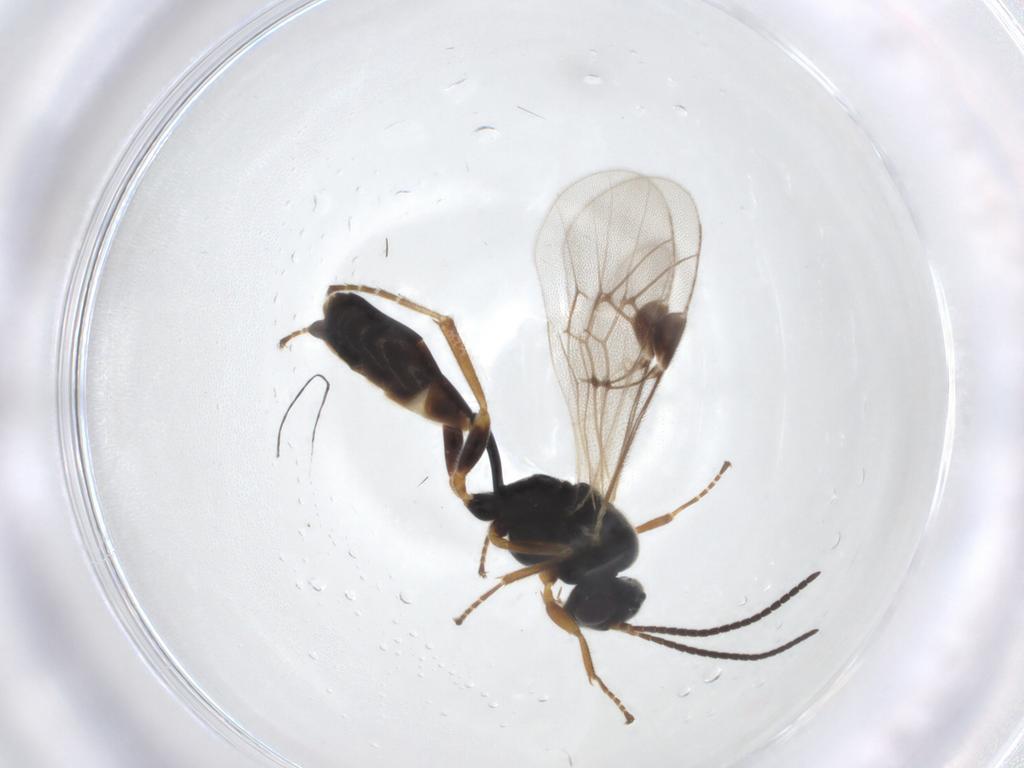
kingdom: Animalia
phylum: Arthropoda
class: Insecta
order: Hymenoptera
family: Ichneumonidae
